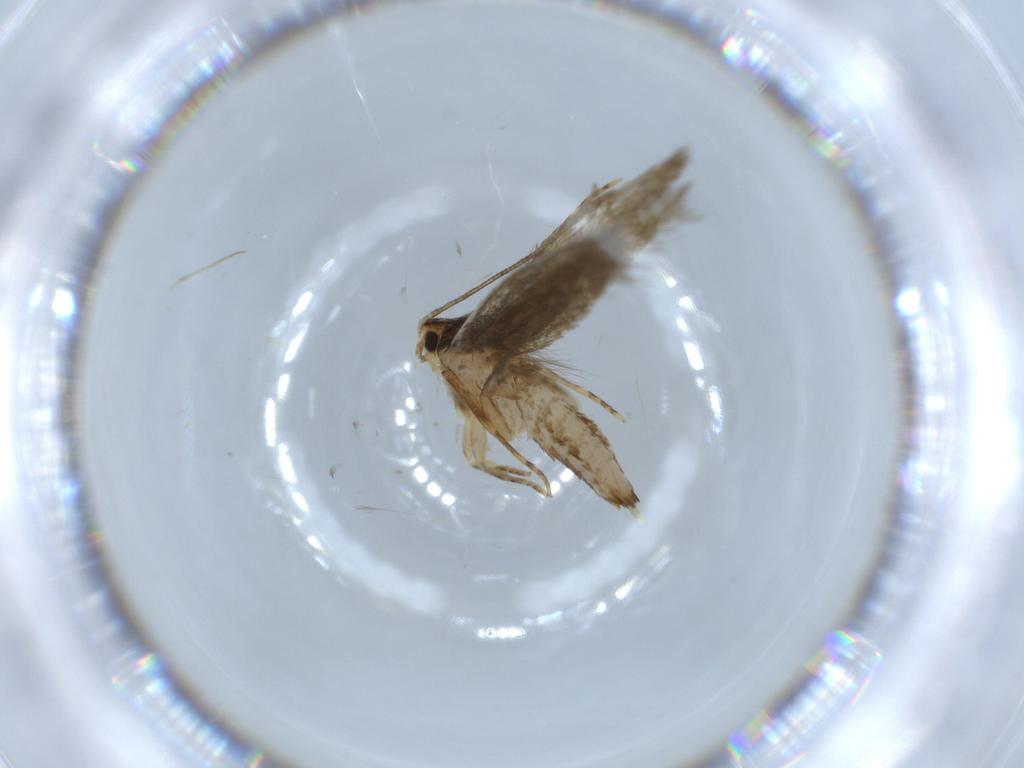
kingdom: Animalia
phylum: Arthropoda
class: Insecta
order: Lepidoptera
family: Tineidae
